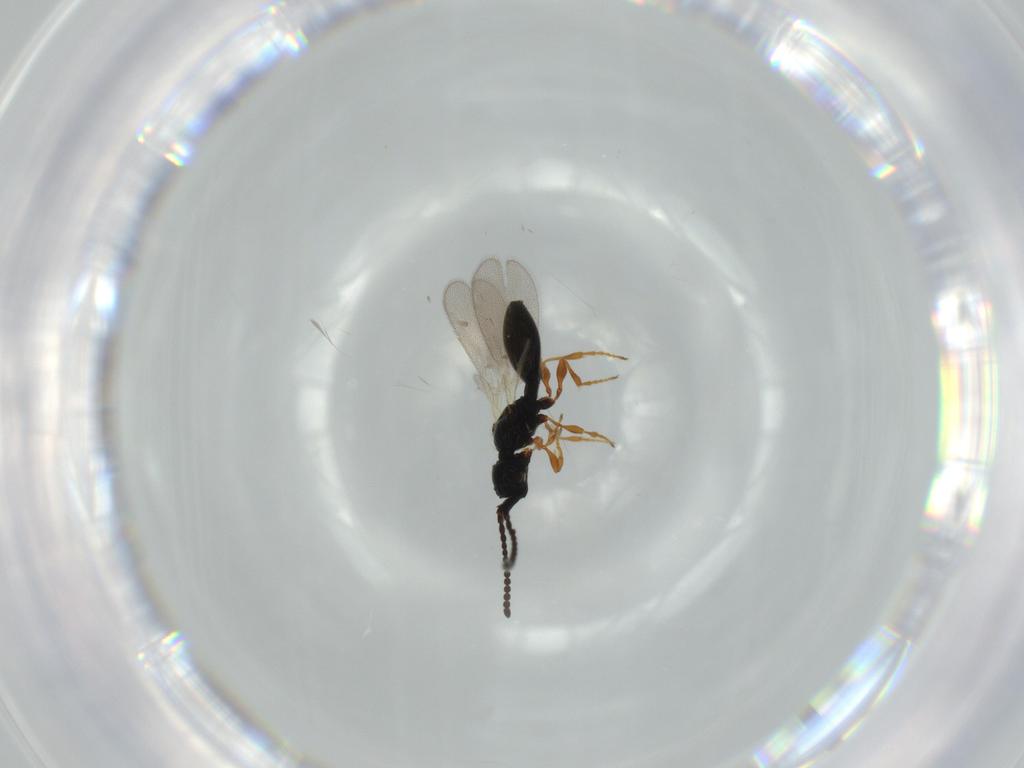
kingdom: Animalia
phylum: Arthropoda
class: Insecta
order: Hymenoptera
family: Diapriidae
